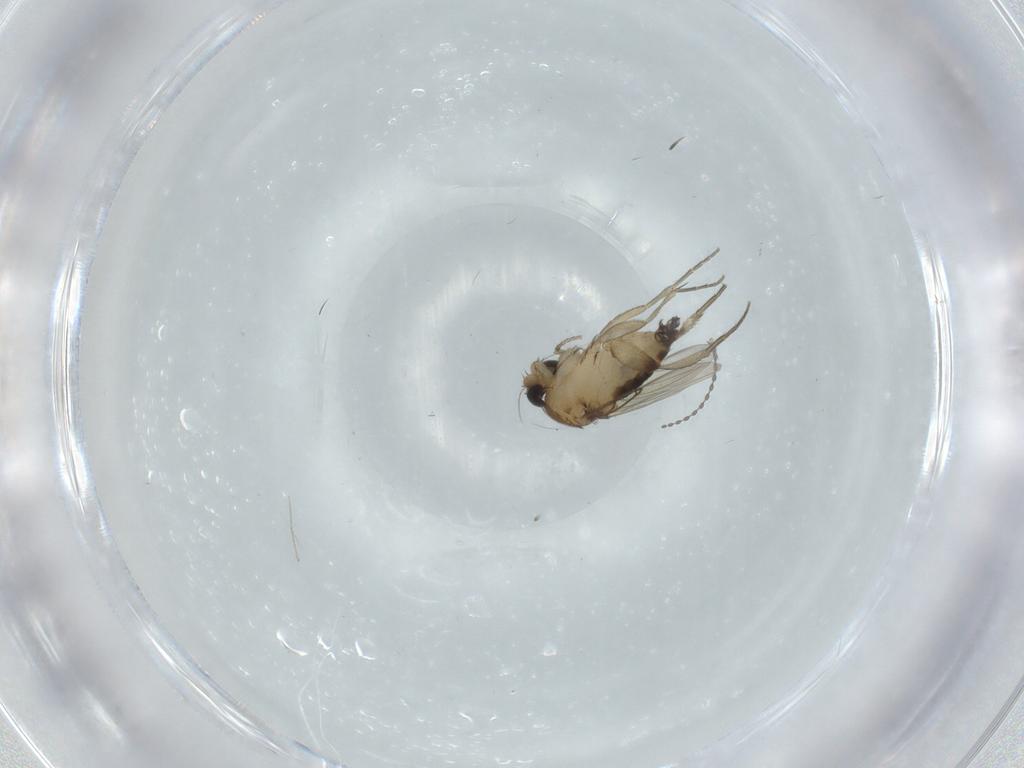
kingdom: Animalia
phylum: Arthropoda
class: Insecta
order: Diptera
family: Phoridae
